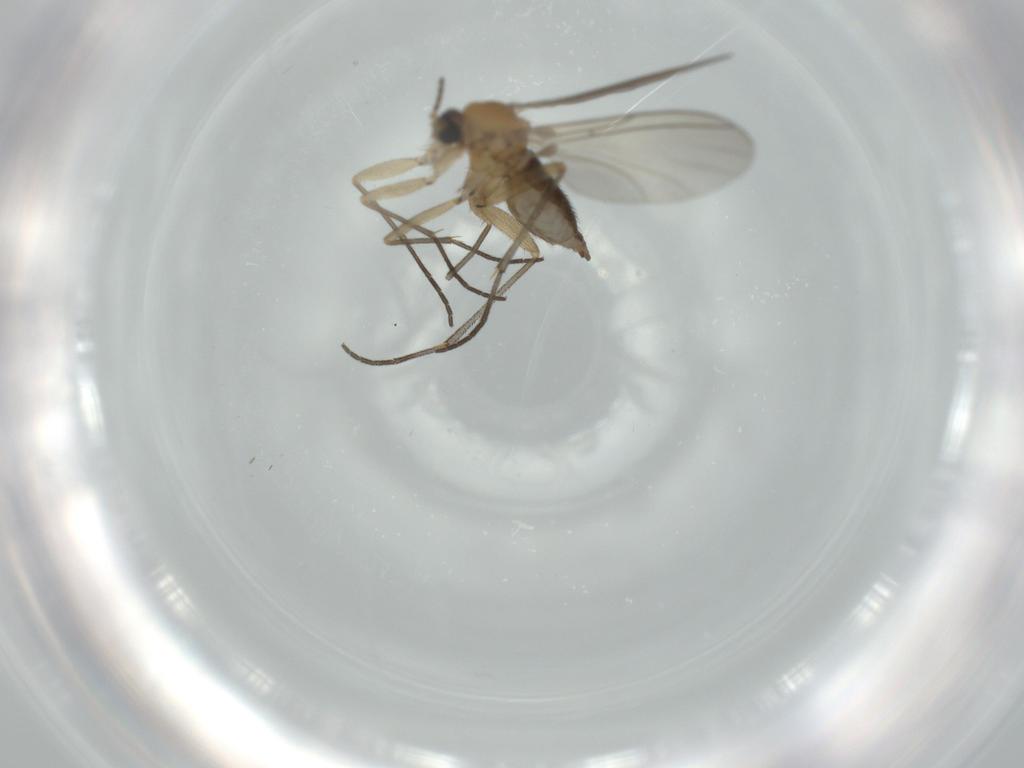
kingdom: Animalia
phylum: Arthropoda
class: Insecta
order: Diptera
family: Sciaridae
